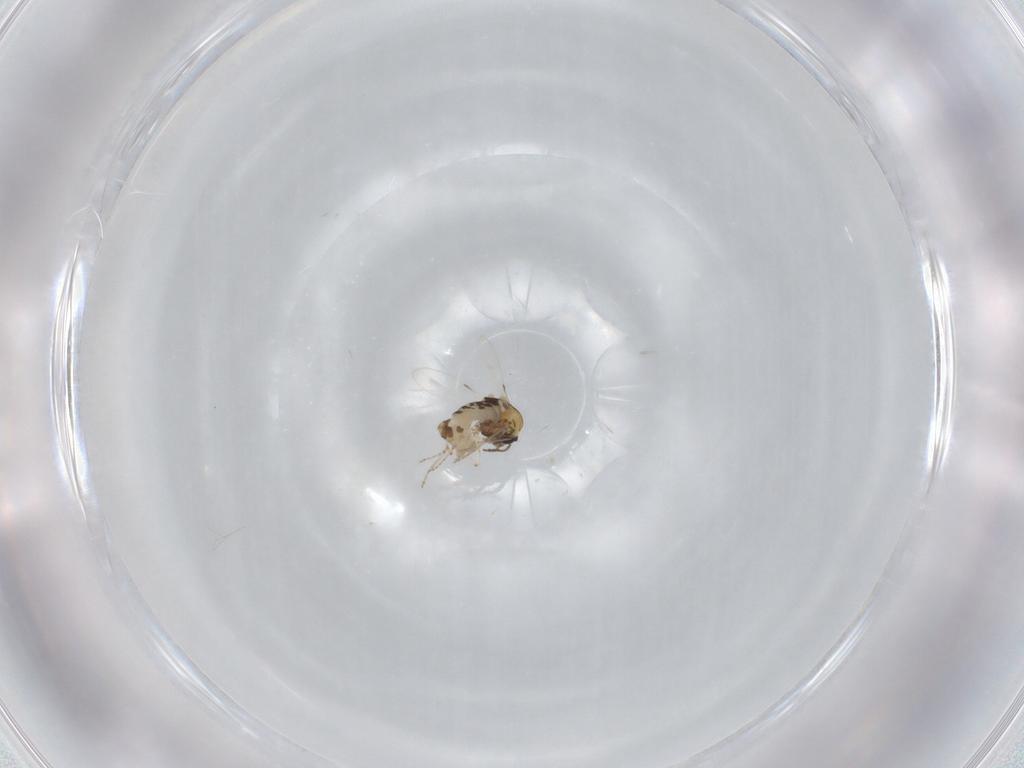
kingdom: Animalia
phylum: Arthropoda
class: Insecta
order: Diptera
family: Ceratopogonidae
